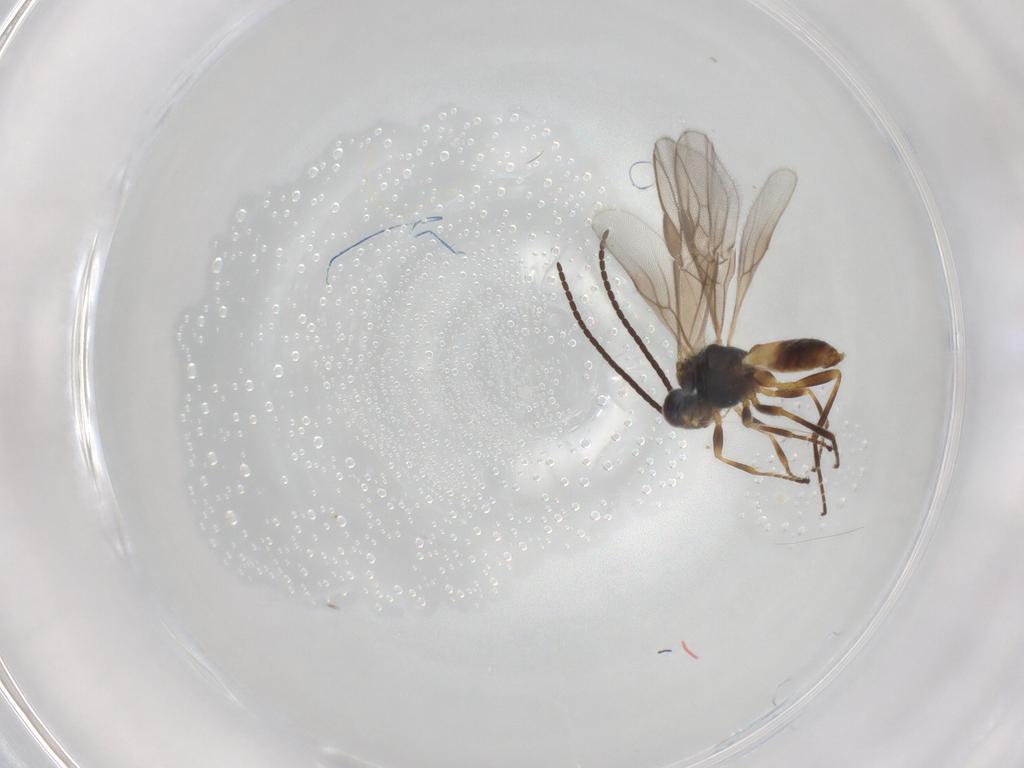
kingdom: Animalia
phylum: Arthropoda
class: Insecta
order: Hymenoptera
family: Braconidae
